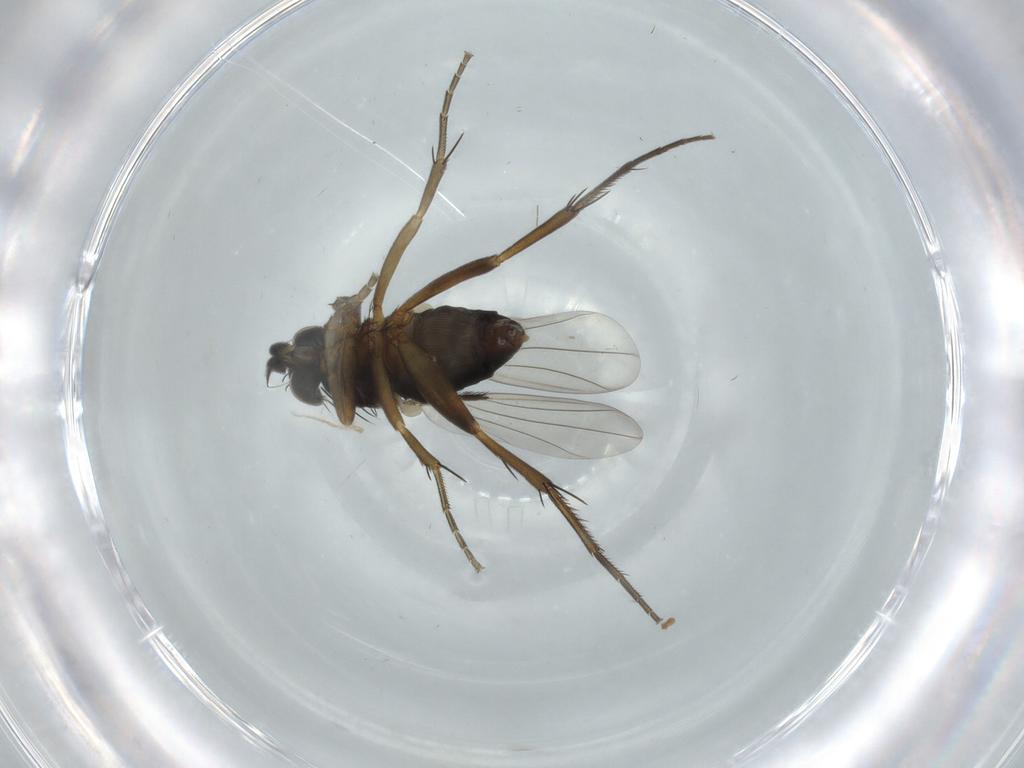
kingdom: Animalia
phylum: Arthropoda
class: Insecta
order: Diptera
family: Phoridae
